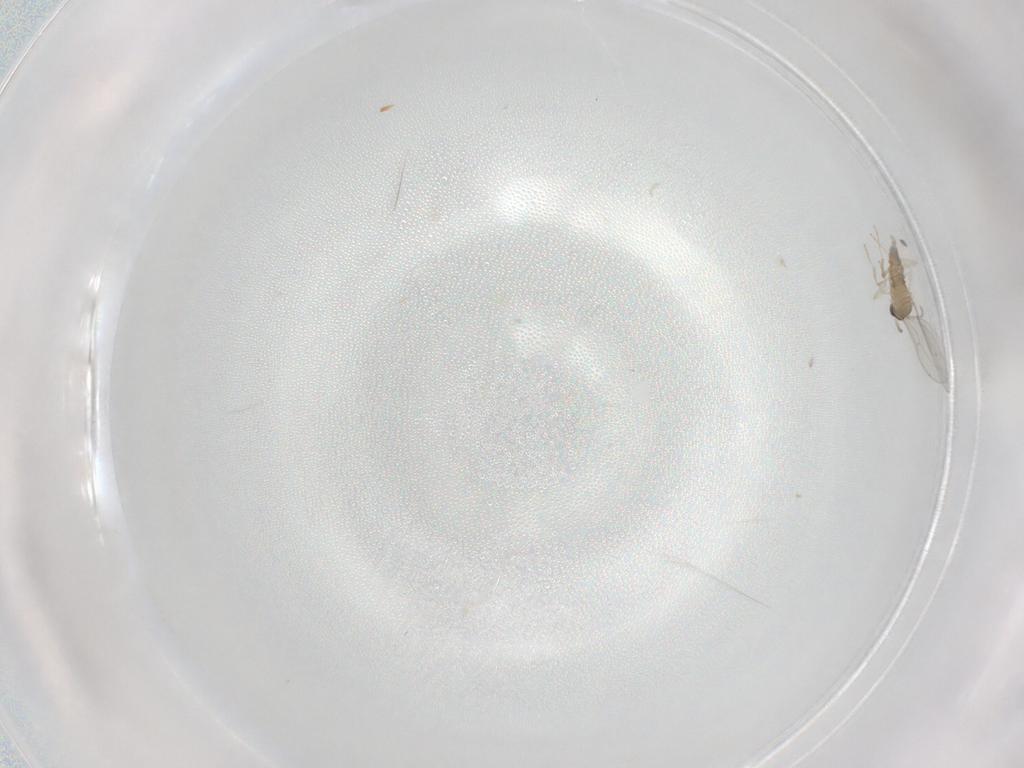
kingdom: Animalia
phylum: Arthropoda
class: Insecta
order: Diptera
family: Cecidomyiidae
